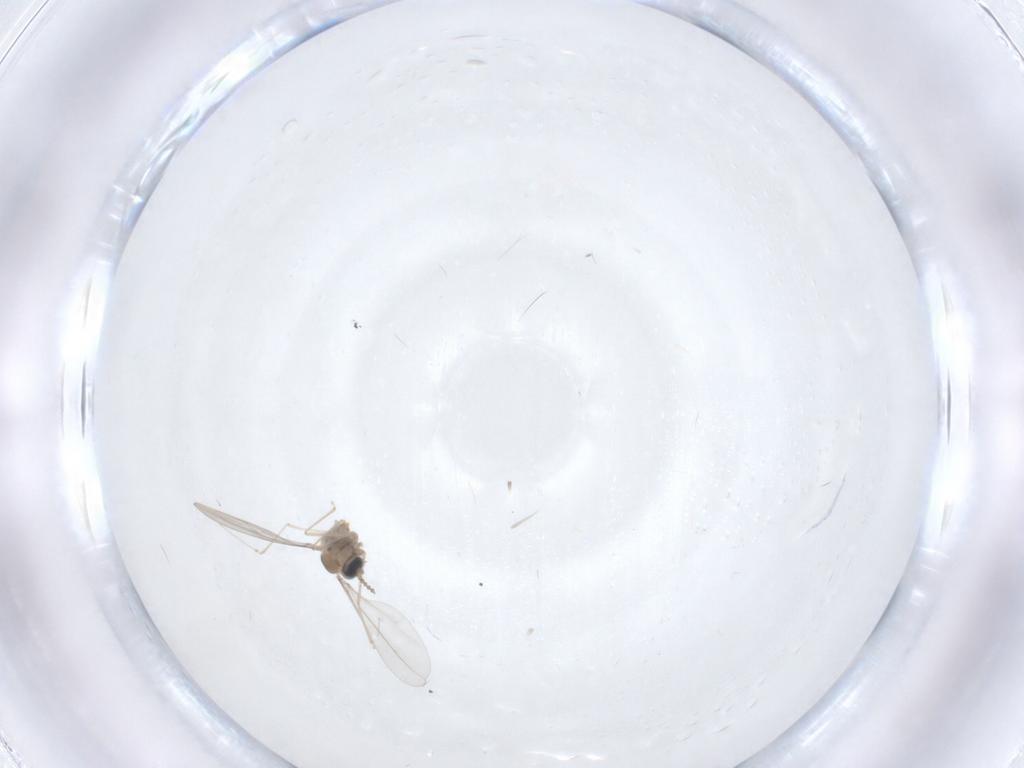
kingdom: Animalia
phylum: Arthropoda
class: Insecta
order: Diptera
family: Cecidomyiidae
